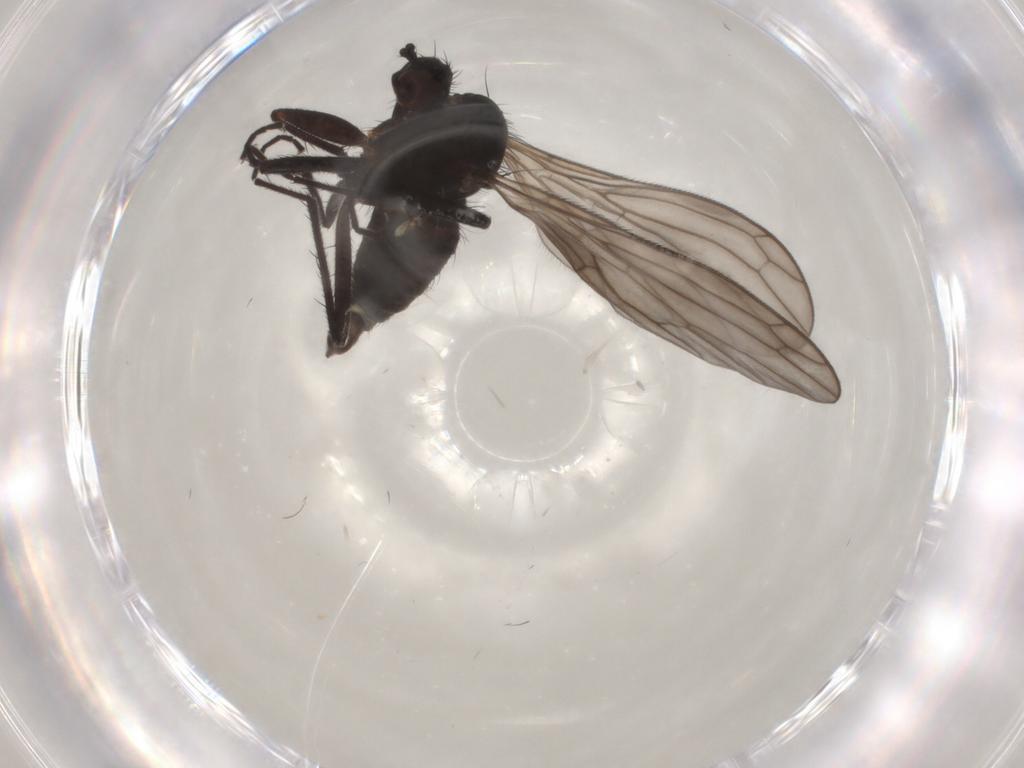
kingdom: Animalia
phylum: Arthropoda
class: Insecta
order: Diptera
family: Empididae
